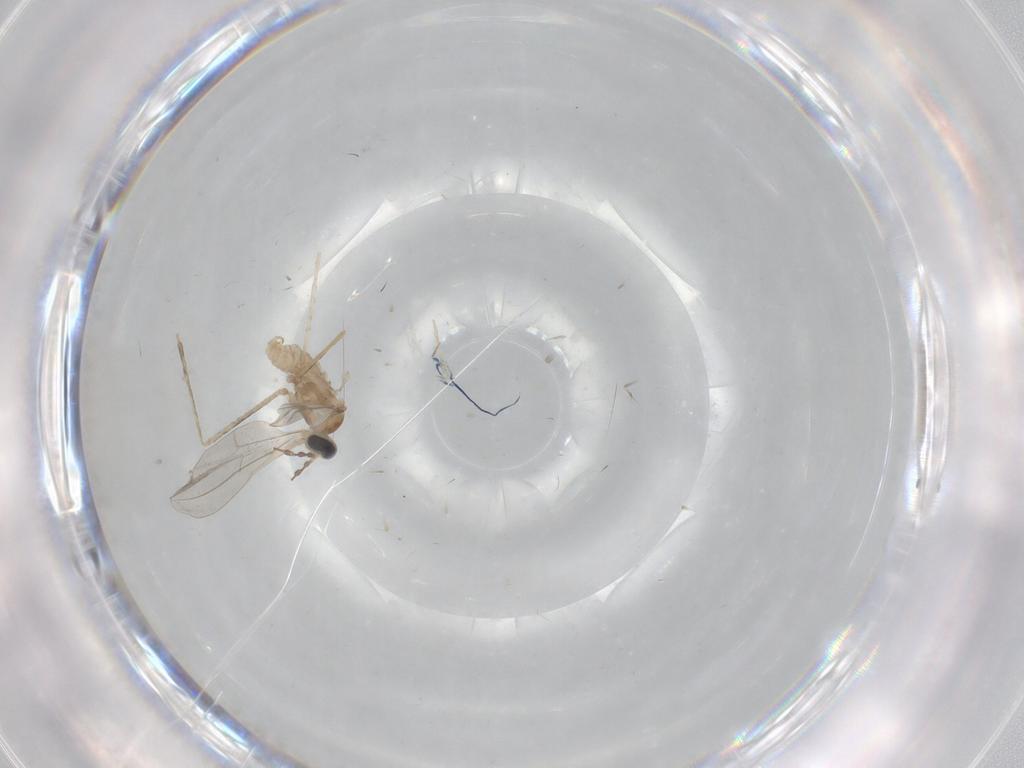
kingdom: Animalia
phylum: Arthropoda
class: Insecta
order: Diptera
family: Cecidomyiidae
